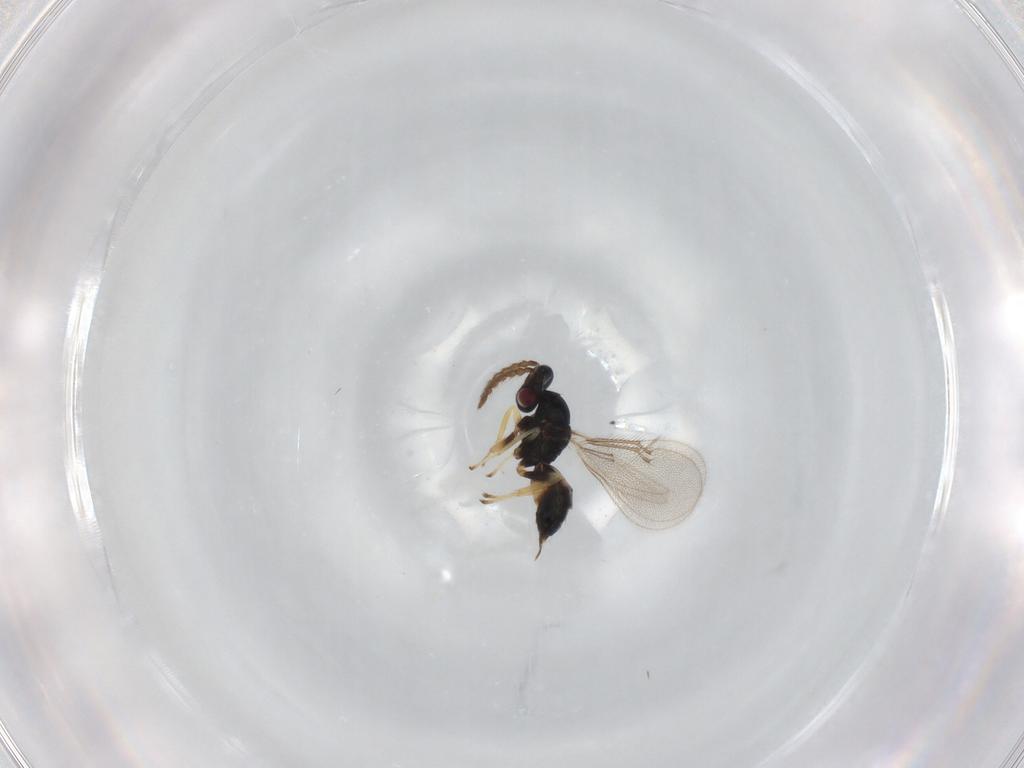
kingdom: Animalia
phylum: Arthropoda
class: Insecta
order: Hymenoptera
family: Eulophidae
